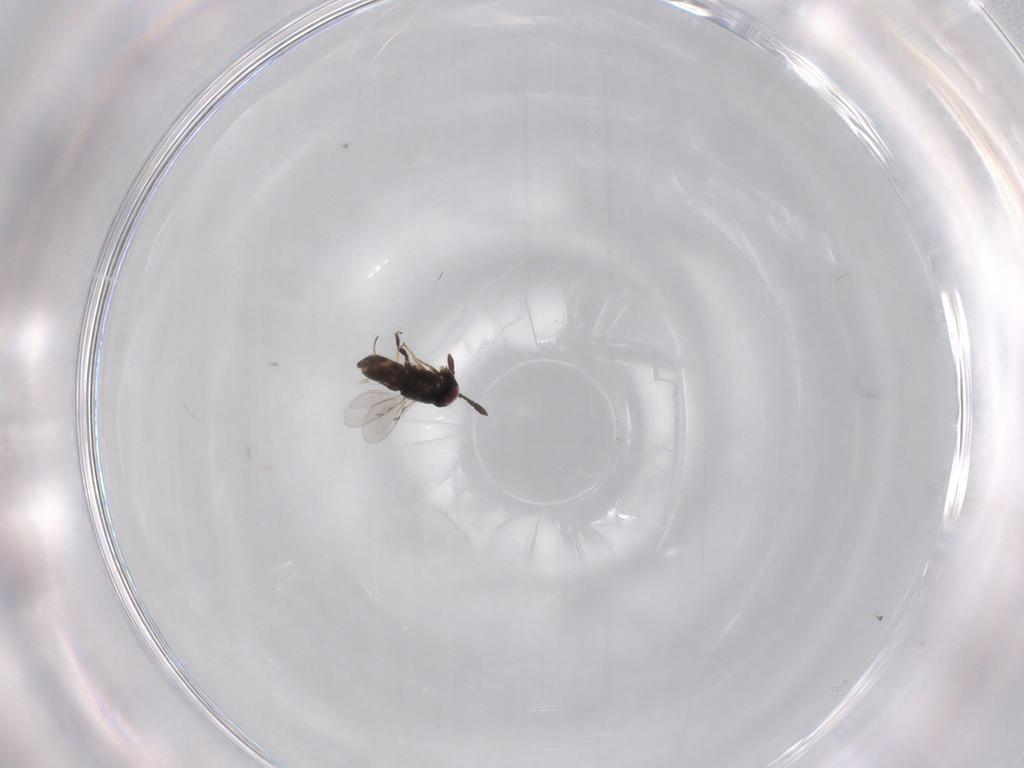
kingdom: Animalia
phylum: Arthropoda
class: Insecta
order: Hymenoptera
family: Encyrtidae
